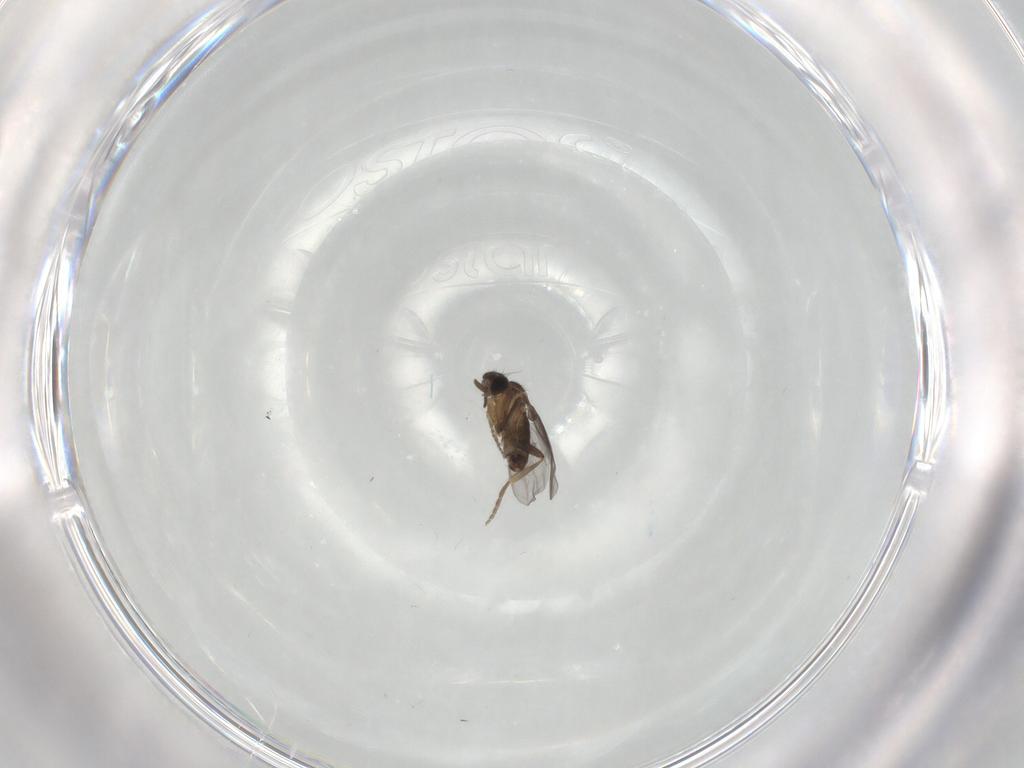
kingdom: Animalia
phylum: Arthropoda
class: Insecta
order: Diptera
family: Phoridae
